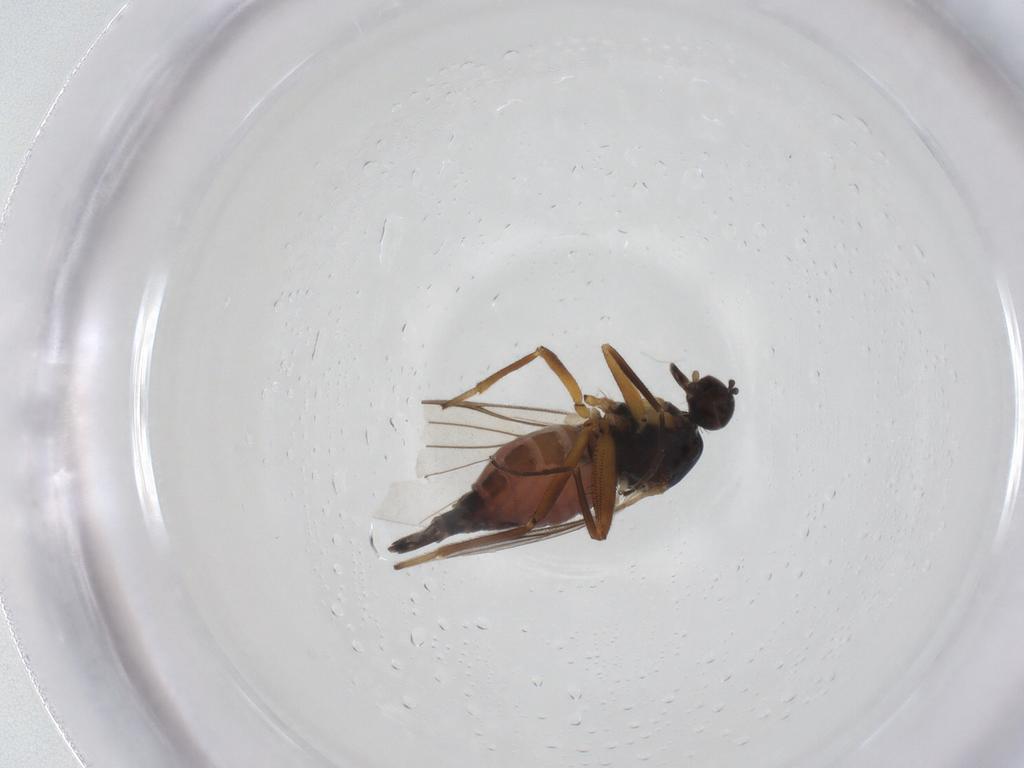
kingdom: Animalia
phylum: Arthropoda
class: Insecta
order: Diptera
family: Hybotidae
